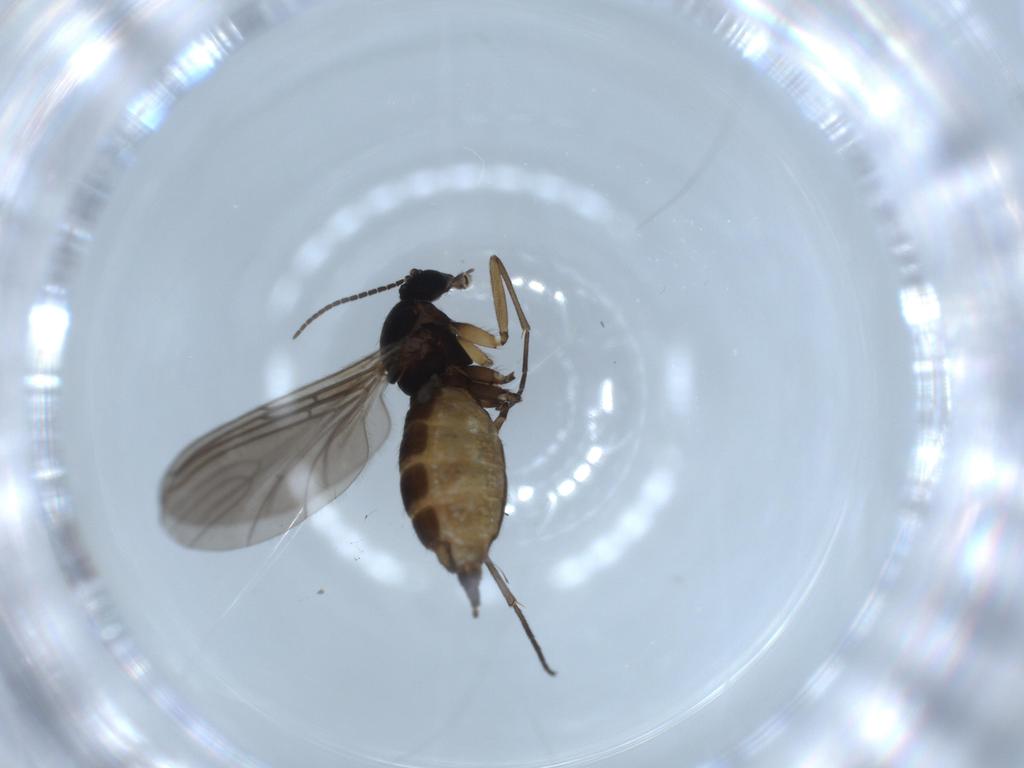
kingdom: Animalia
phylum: Arthropoda
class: Insecta
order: Diptera
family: Sciaridae
